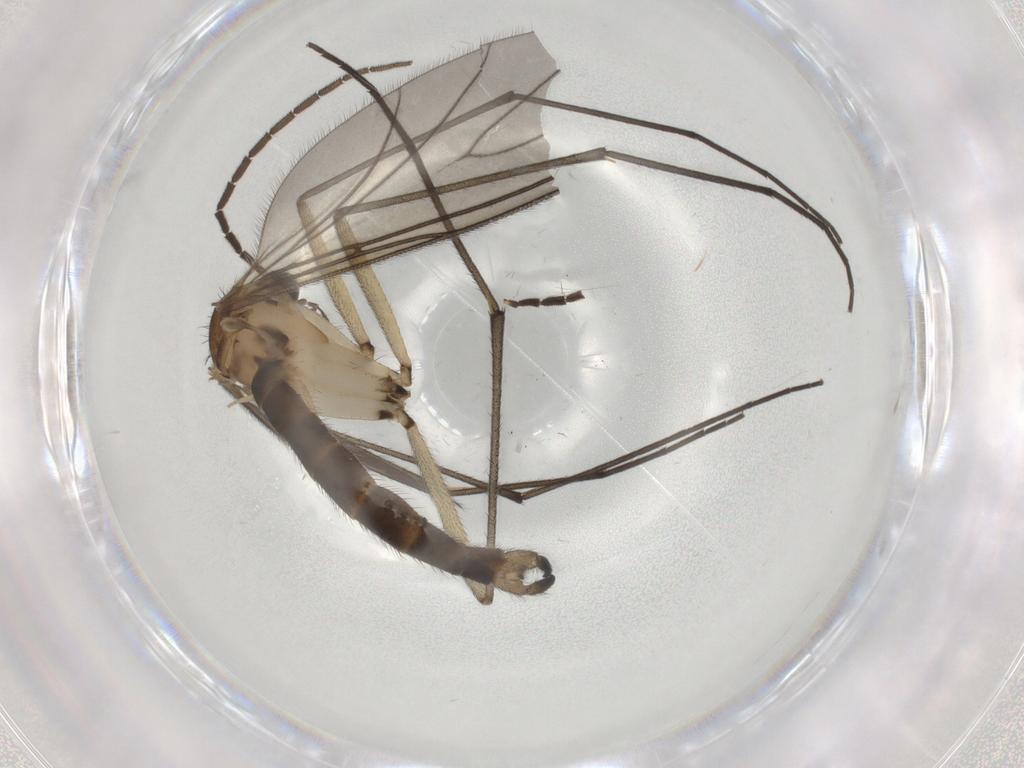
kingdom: Animalia
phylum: Arthropoda
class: Insecta
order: Diptera
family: Sciaridae
